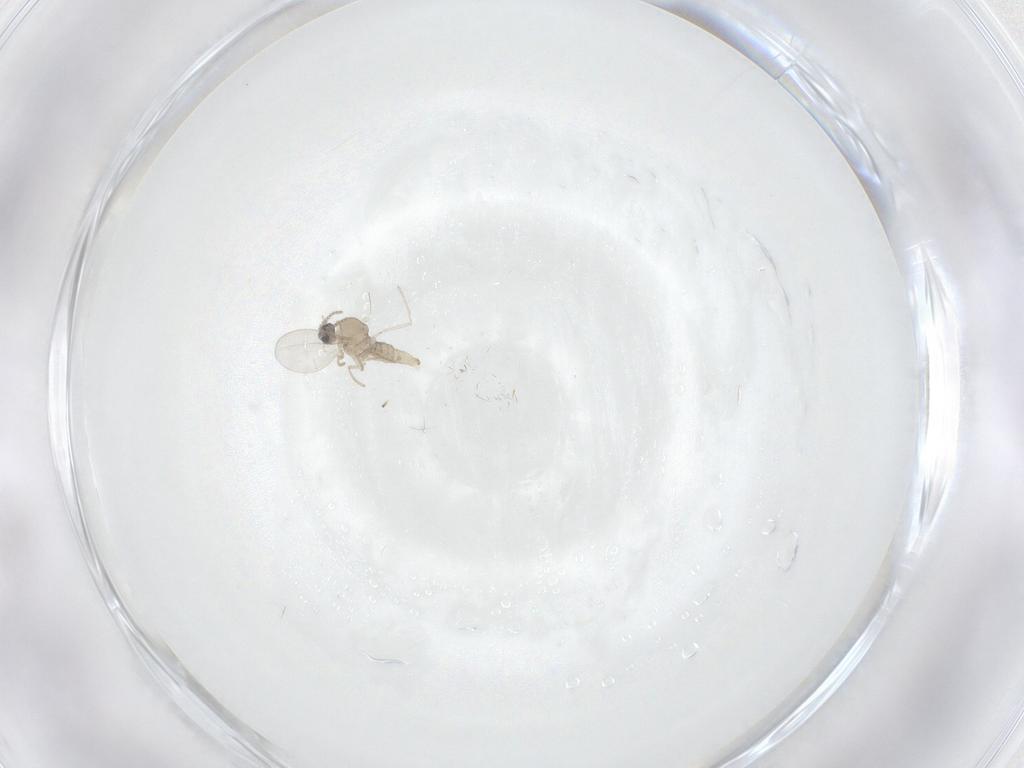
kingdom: Animalia
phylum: Arthropoda
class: Insecta
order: Diptera
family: Cecidomyiidae
